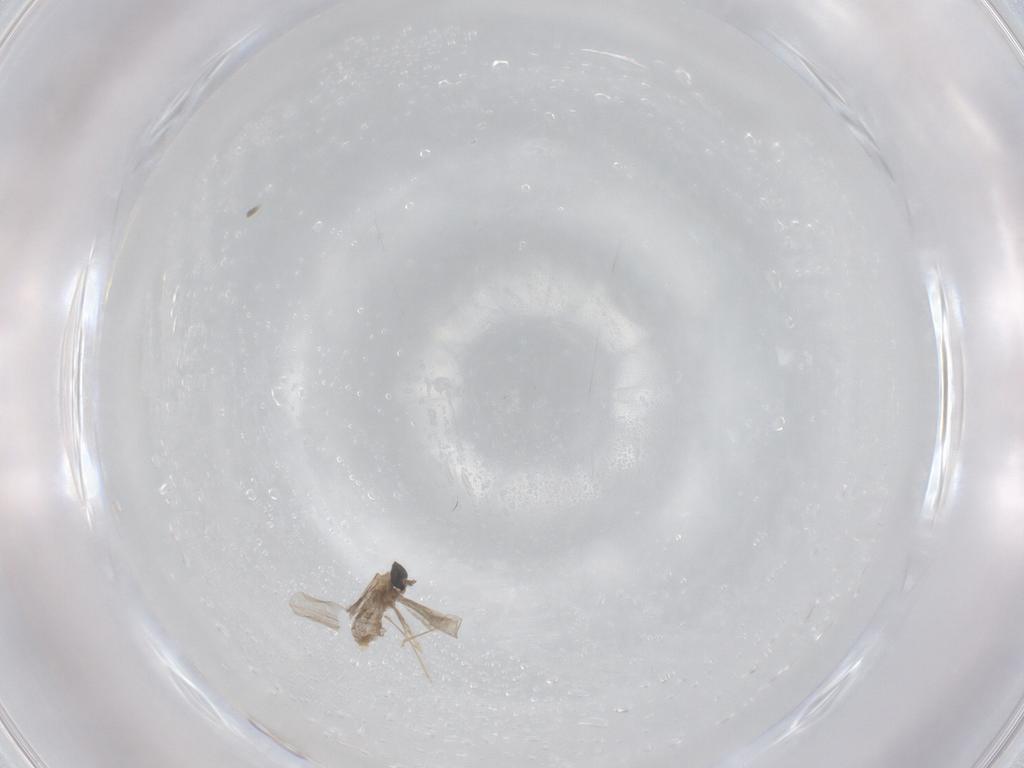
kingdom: Animalia
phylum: Arthropoda
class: Insecta
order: Diptera
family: Cecidomyiidae
